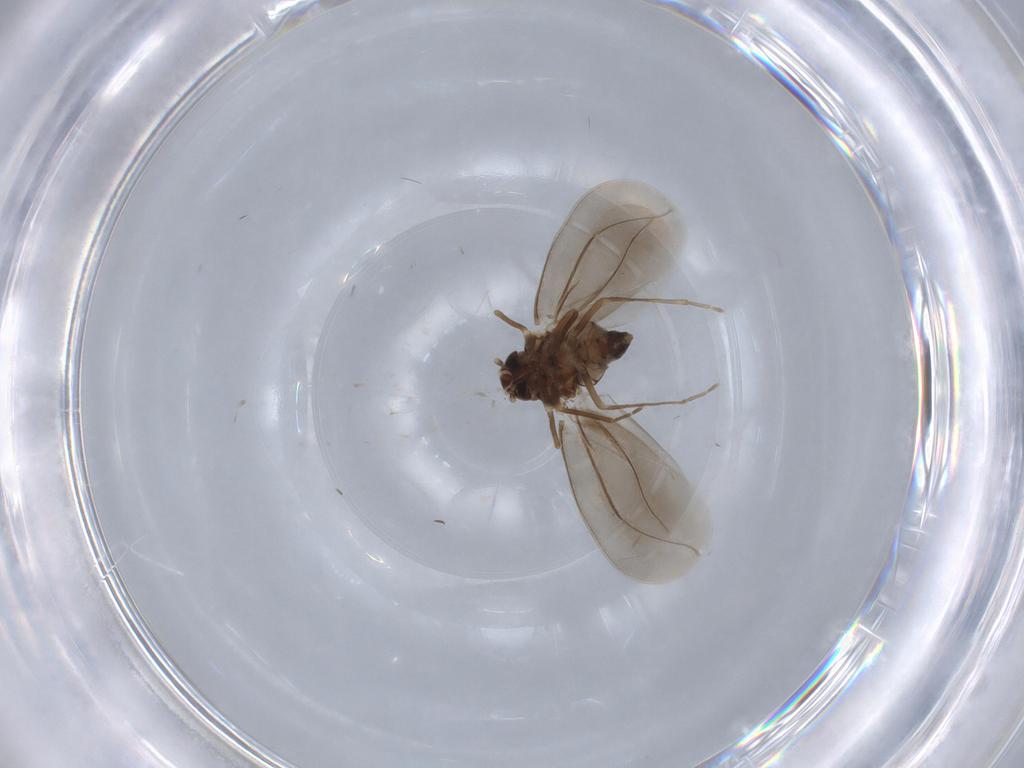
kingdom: Animalia
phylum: Arthropoda
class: Insecta
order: Hemiptera
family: Aleyrodidae
